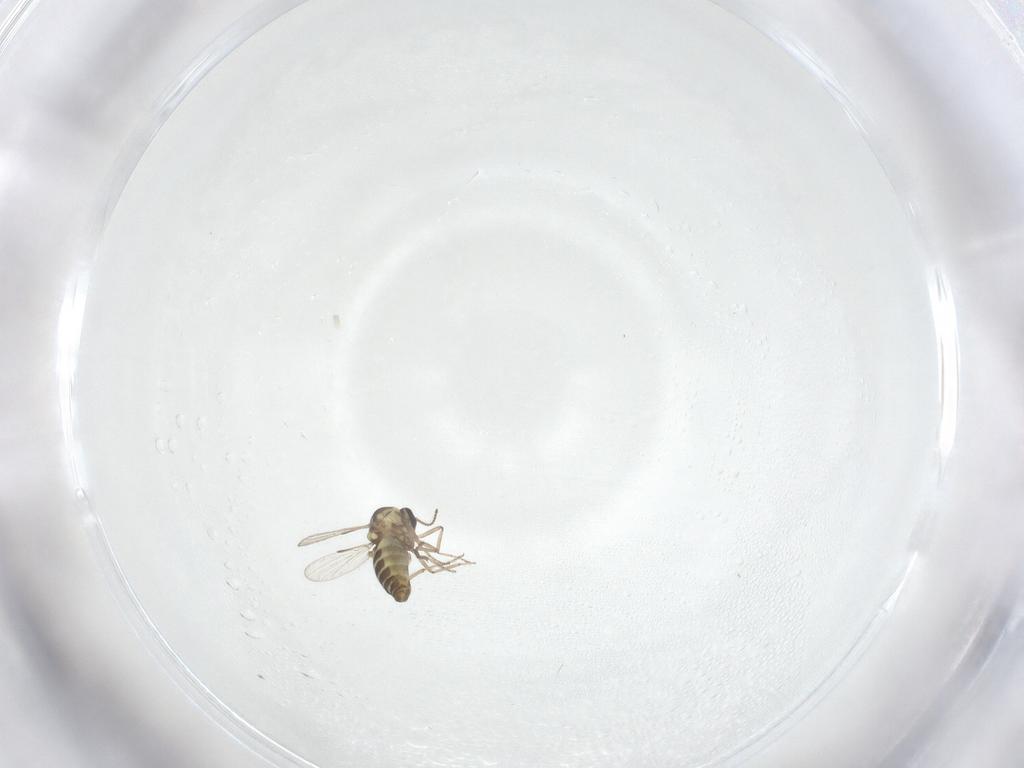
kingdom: Animalia
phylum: Arthropoda
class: Insecta
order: Diptera
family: Ceratopogonidae
